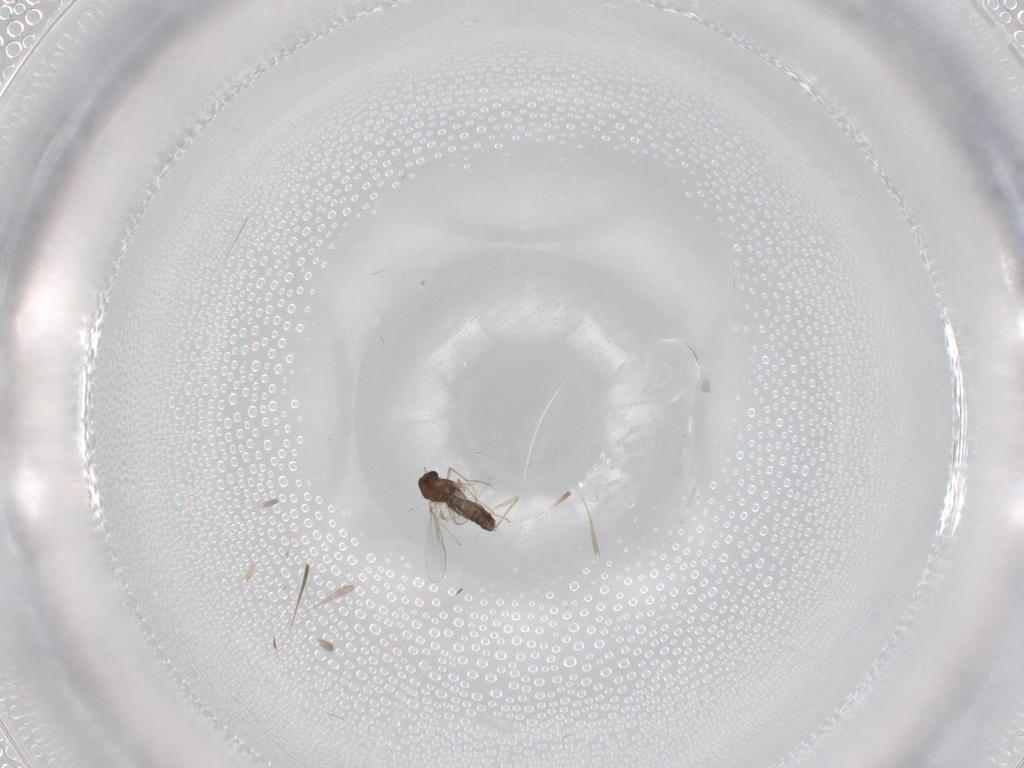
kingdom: Animalia
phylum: Arthropoda
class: Insecta
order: Diptera
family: Chironomidae
